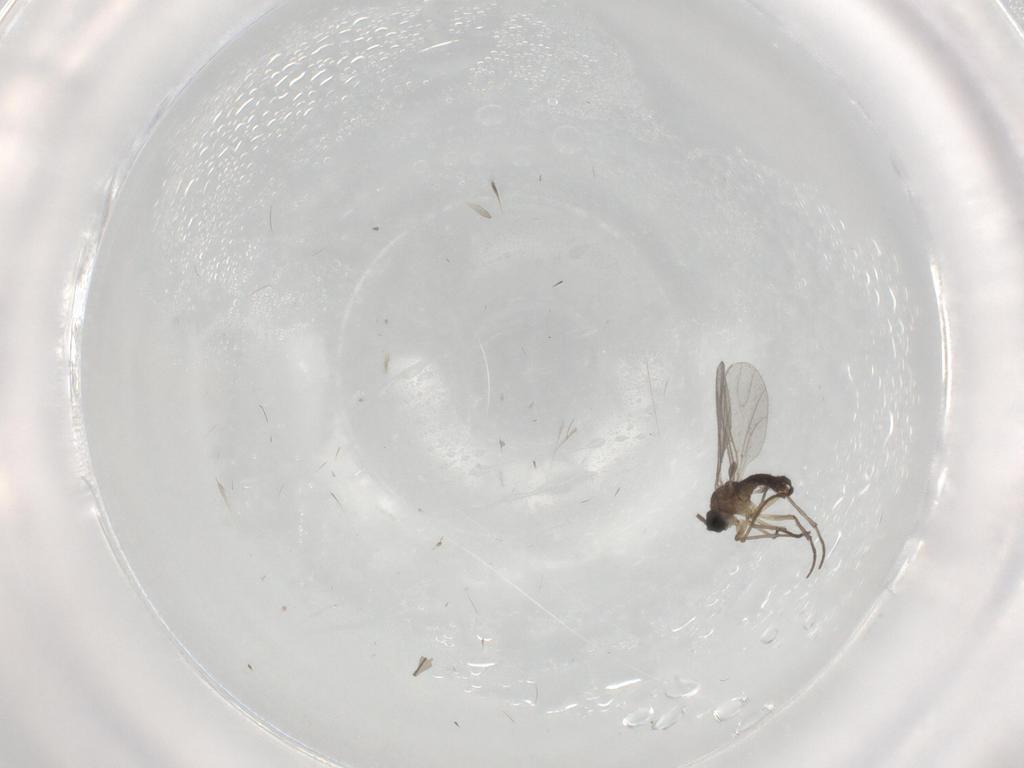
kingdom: Animalia
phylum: Arthropoda
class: Insecta
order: Diptera
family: Sciaridae
